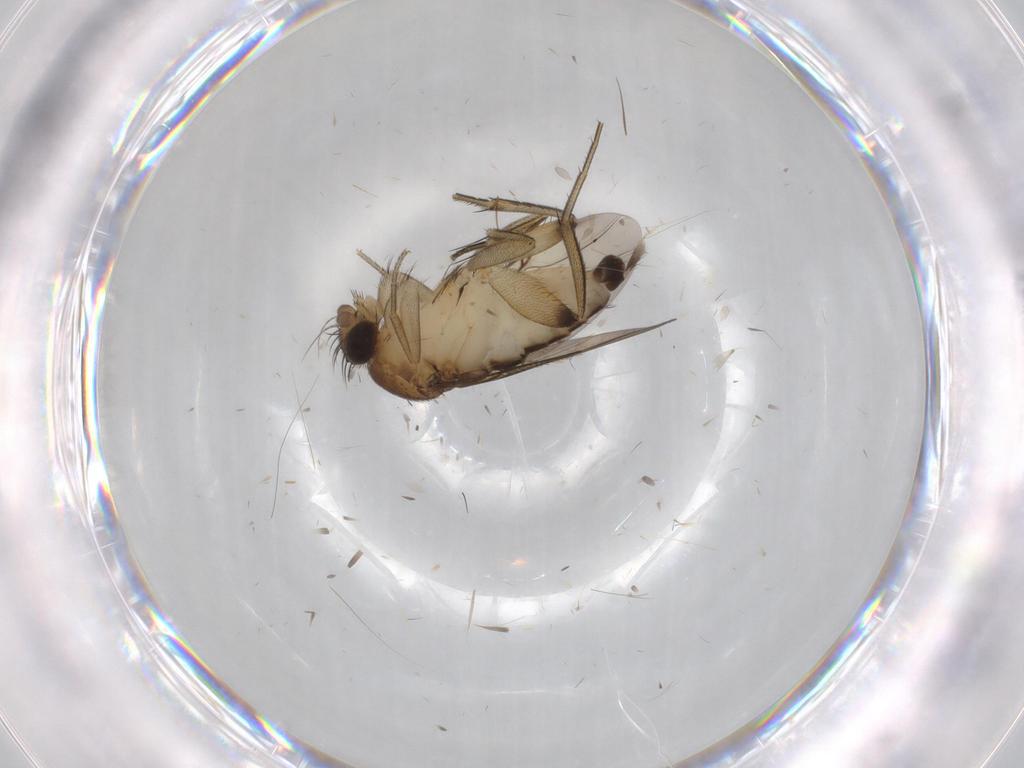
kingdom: Animalia
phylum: Arthropoda
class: Insecta
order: Diptera
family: Phoridae
